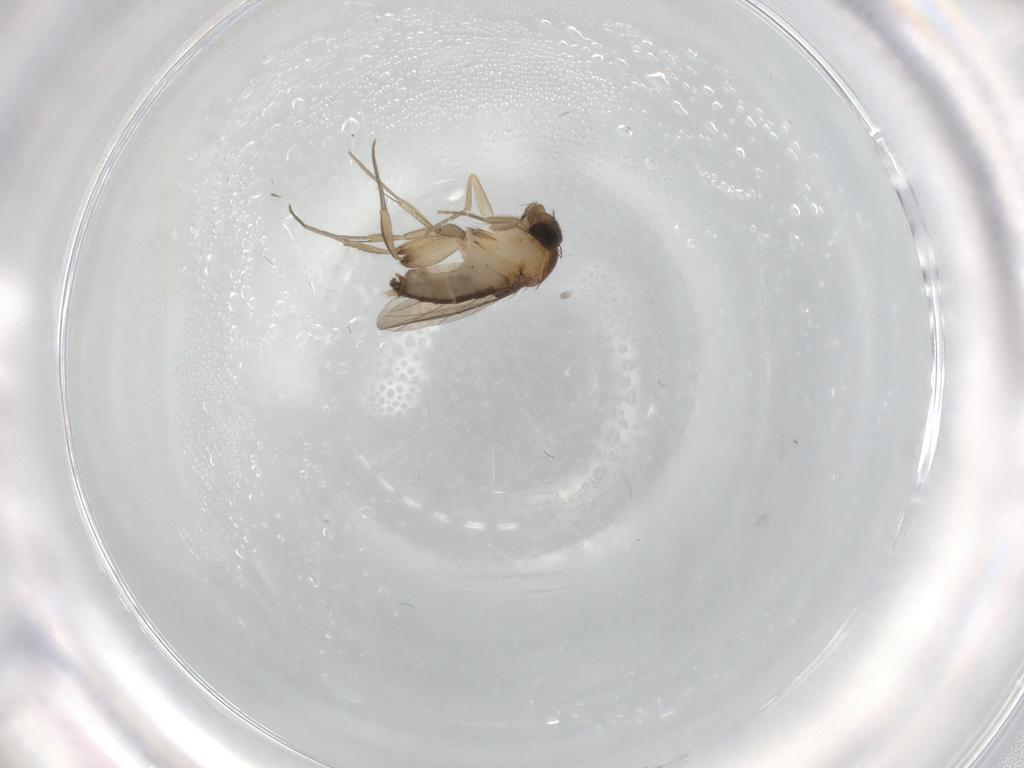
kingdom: Animalia
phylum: Arthropoda
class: Insecta
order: Diptera
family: Phoridae
